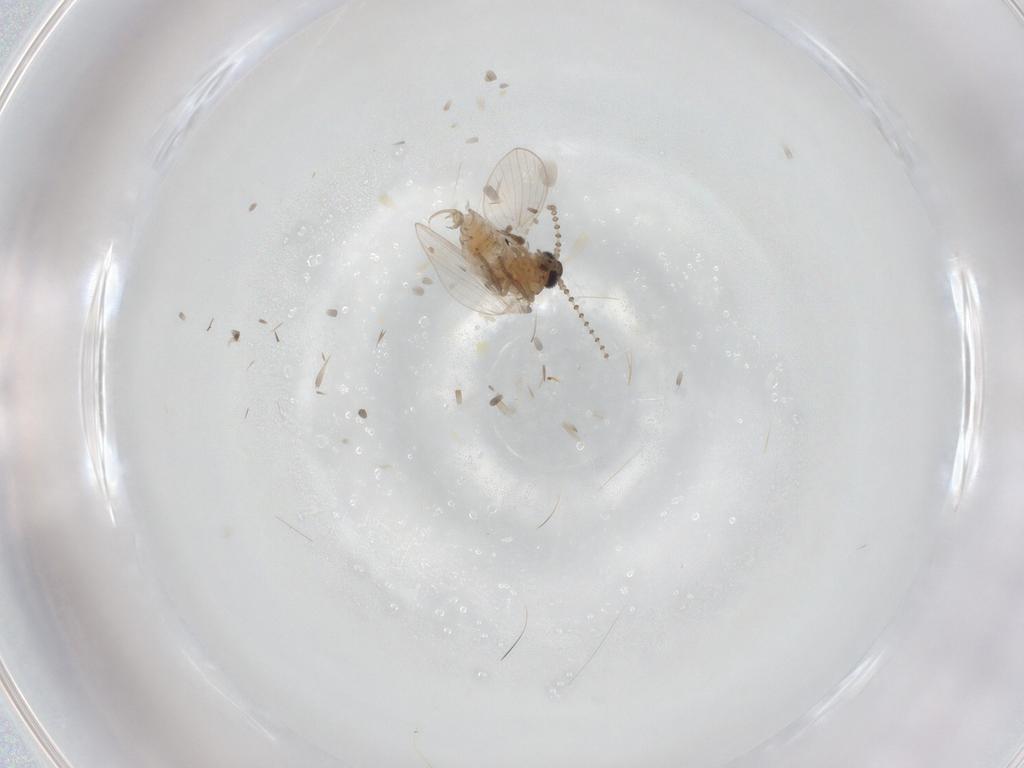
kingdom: Animalia
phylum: Arthropoda
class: Insecta
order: Diptera
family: Psychodidae
